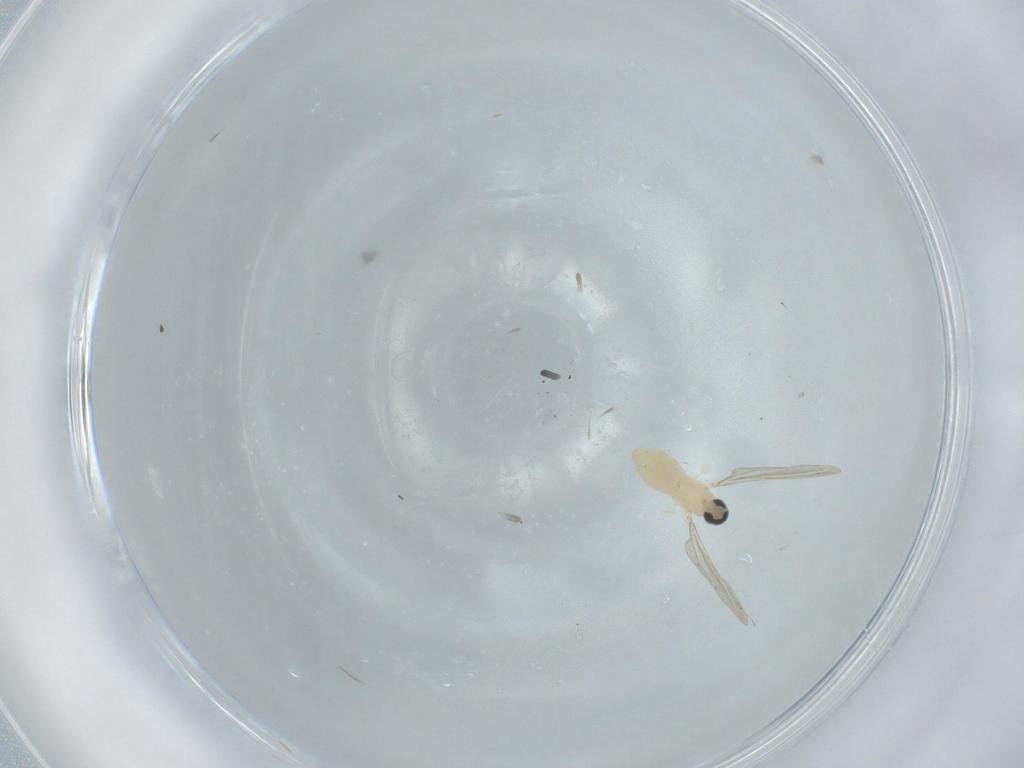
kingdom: Animalia
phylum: Arthropoda
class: Insecta
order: Diptera
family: Cecidomyiidae
